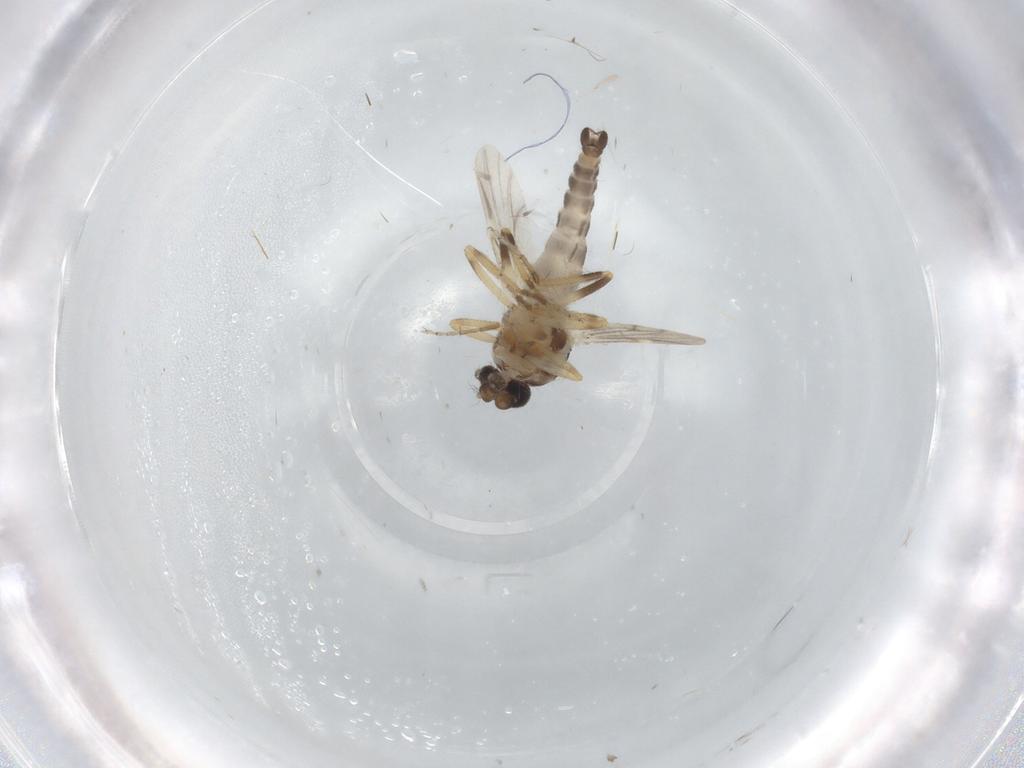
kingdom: Animalia
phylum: Arthropoda
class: Insecta
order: Diptera
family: Ceratopogonidae
